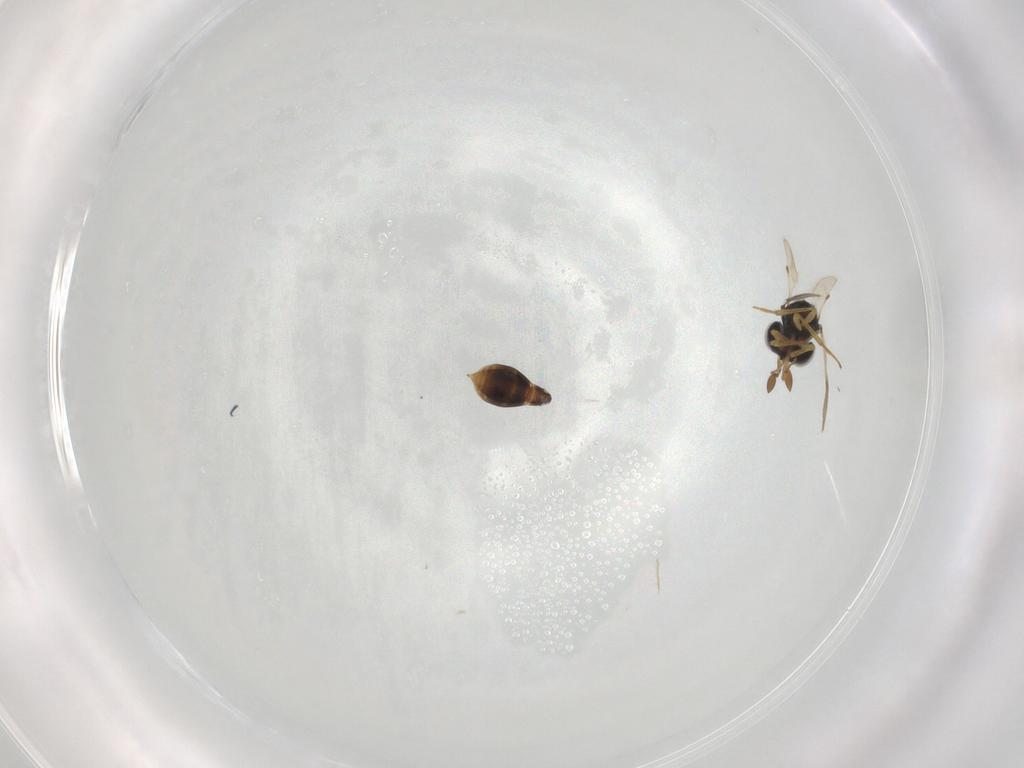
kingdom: Animalia
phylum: Arthropoda
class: Insecta
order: Hymenoptera
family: Scelionidae
